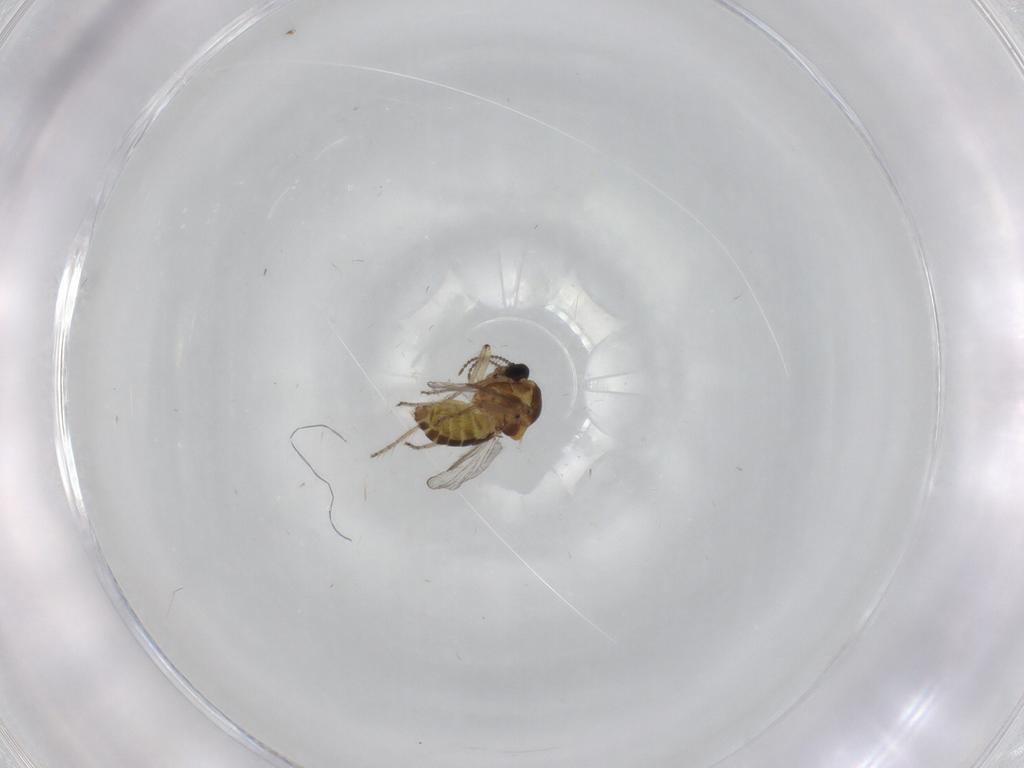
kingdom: Animalia
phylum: Arthropoda
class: Insecta
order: Diptera
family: Ceratopogonidae
